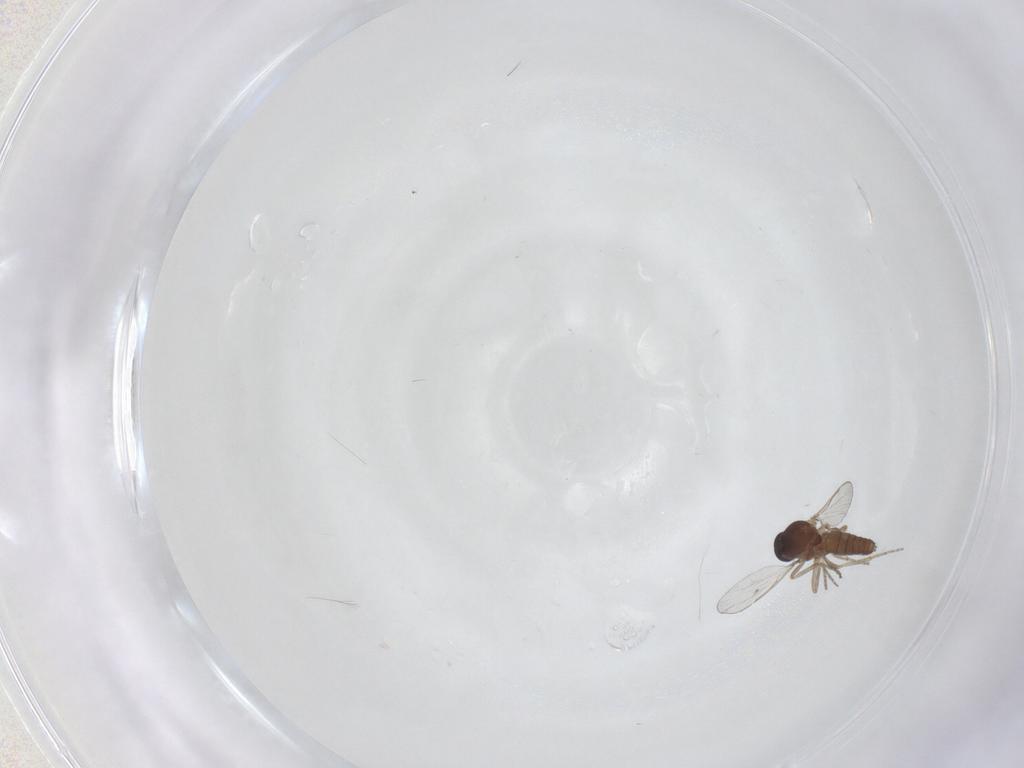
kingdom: Animalia
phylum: Arthropoda
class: Insecta
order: Diptera
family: Ceratopogonidae
